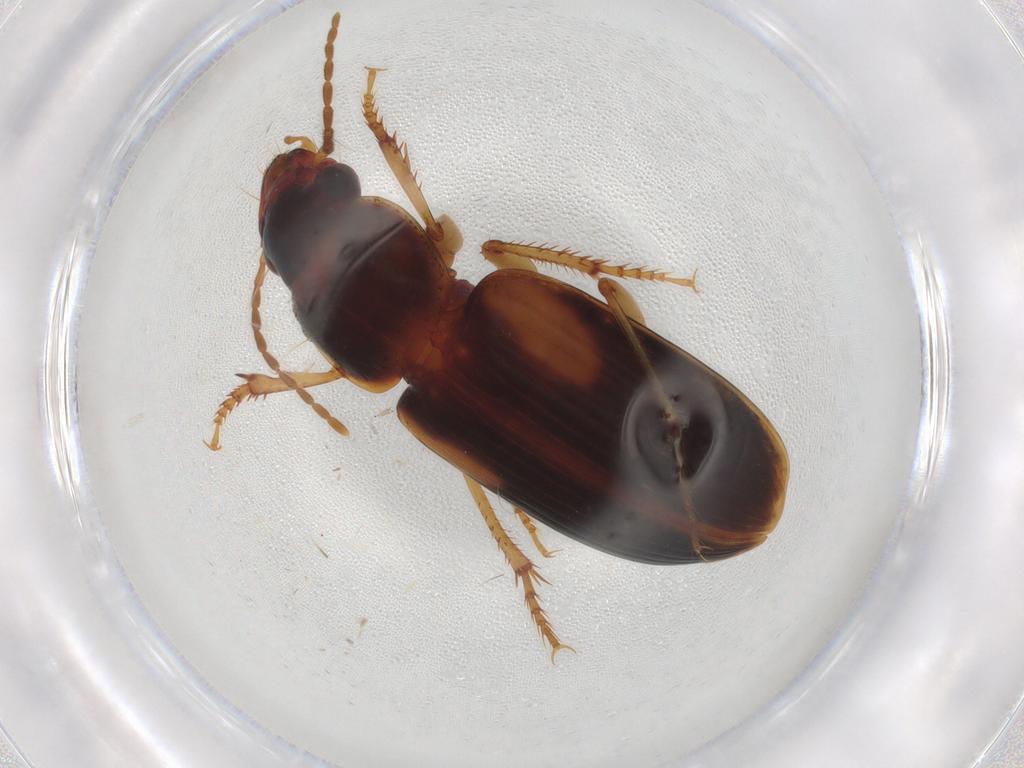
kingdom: Animalia
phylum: Arthropoda
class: Insecta
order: Coleoptera
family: Carabidae
